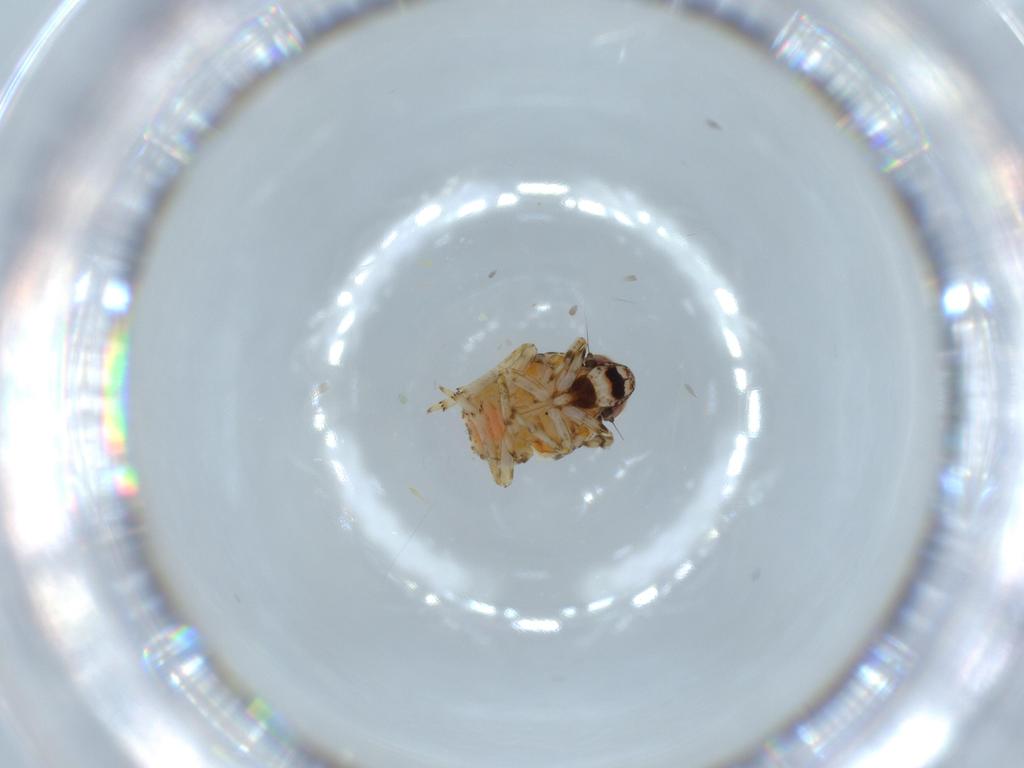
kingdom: Animalia
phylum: Arthropoda
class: Insecta
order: Hemiptera
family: Issidae
